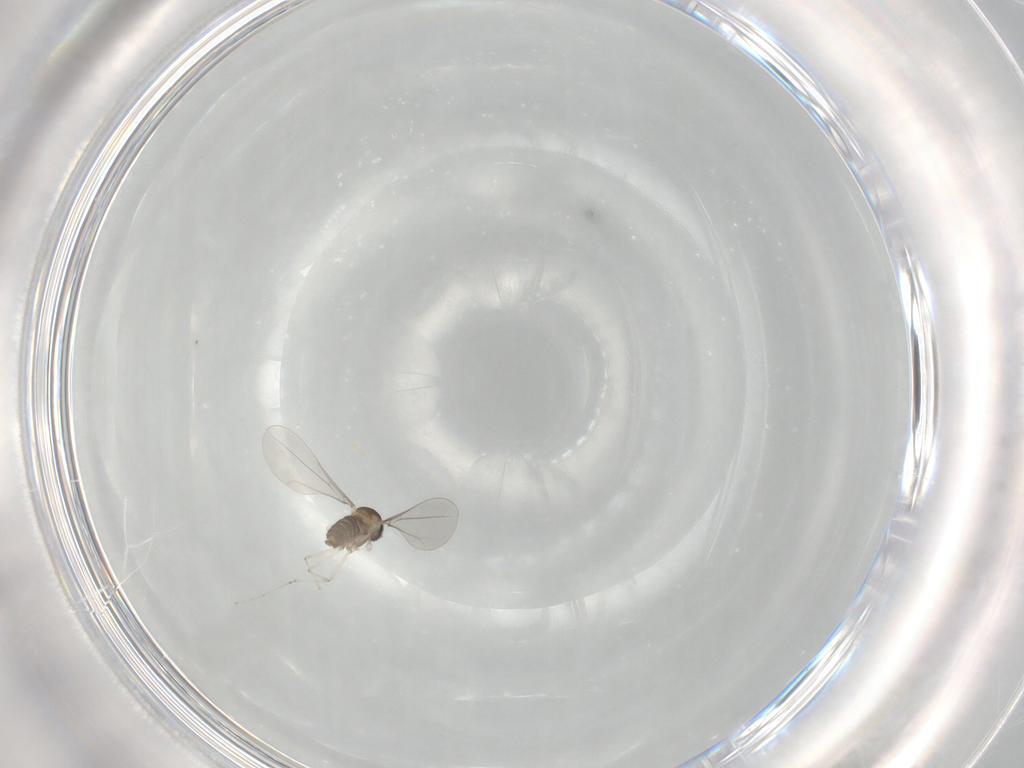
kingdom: Animalia
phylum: Arthropoda
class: Insecta
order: Diptera
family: Cecidomyiidae
